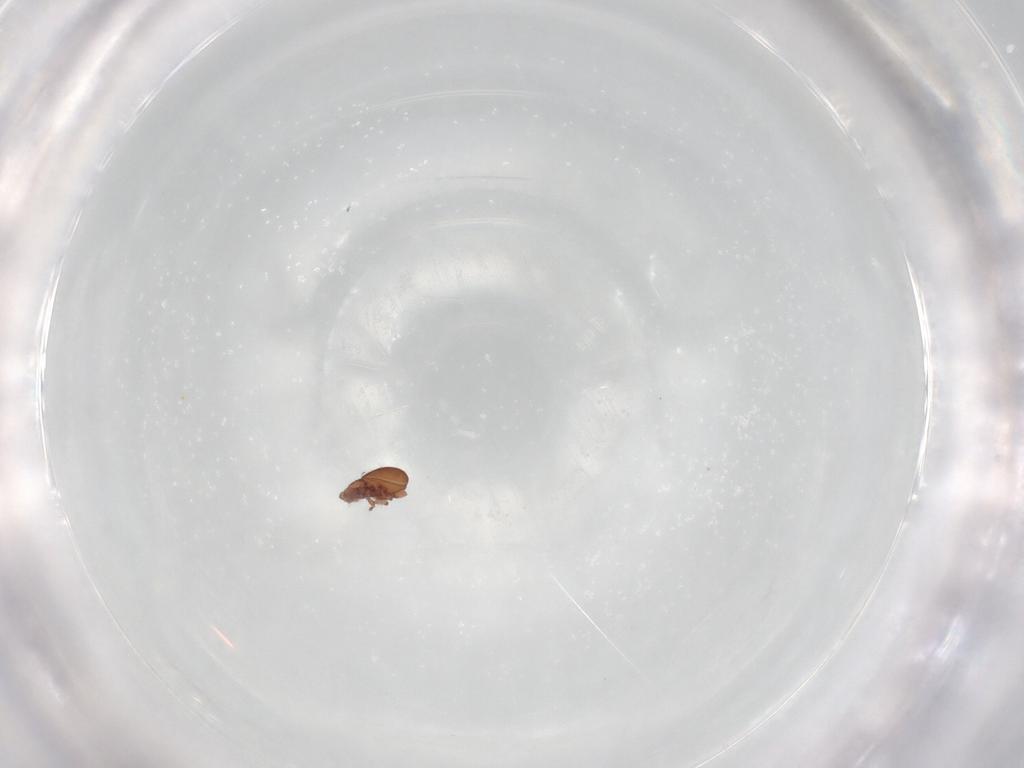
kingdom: Animalia
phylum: Arthropoda
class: Arachnida
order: Sarcoptiformes
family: Eremaeidae
